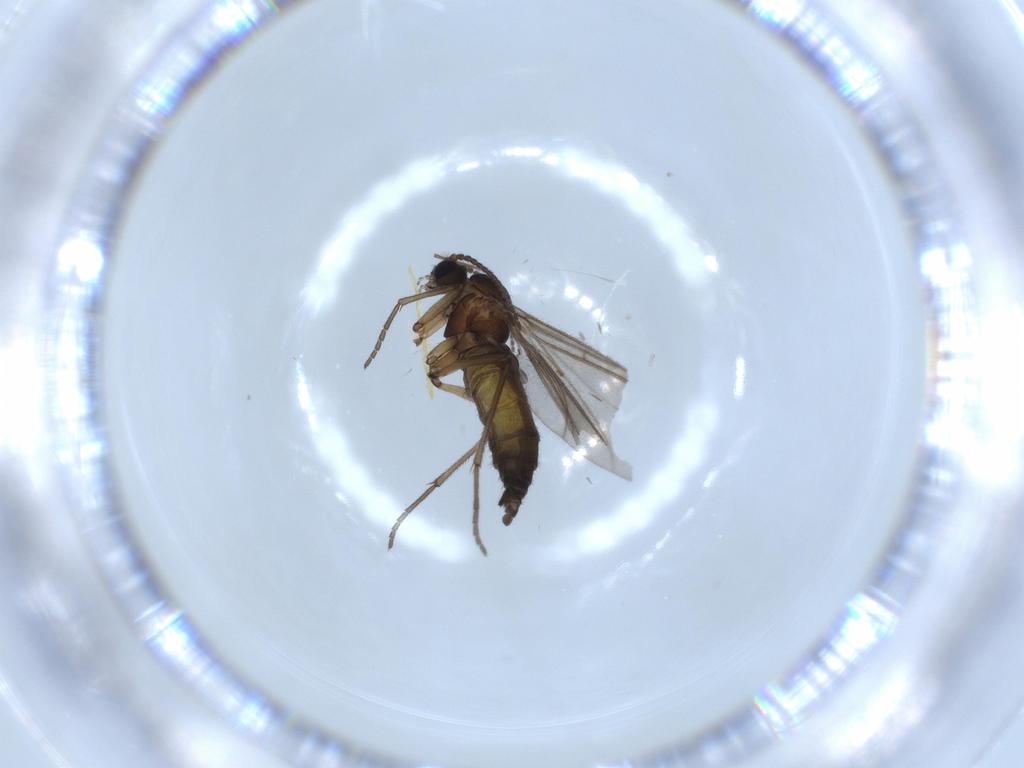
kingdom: Animalia
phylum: Arthropoda
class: Insecta
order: Diptera
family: Sciaridae
